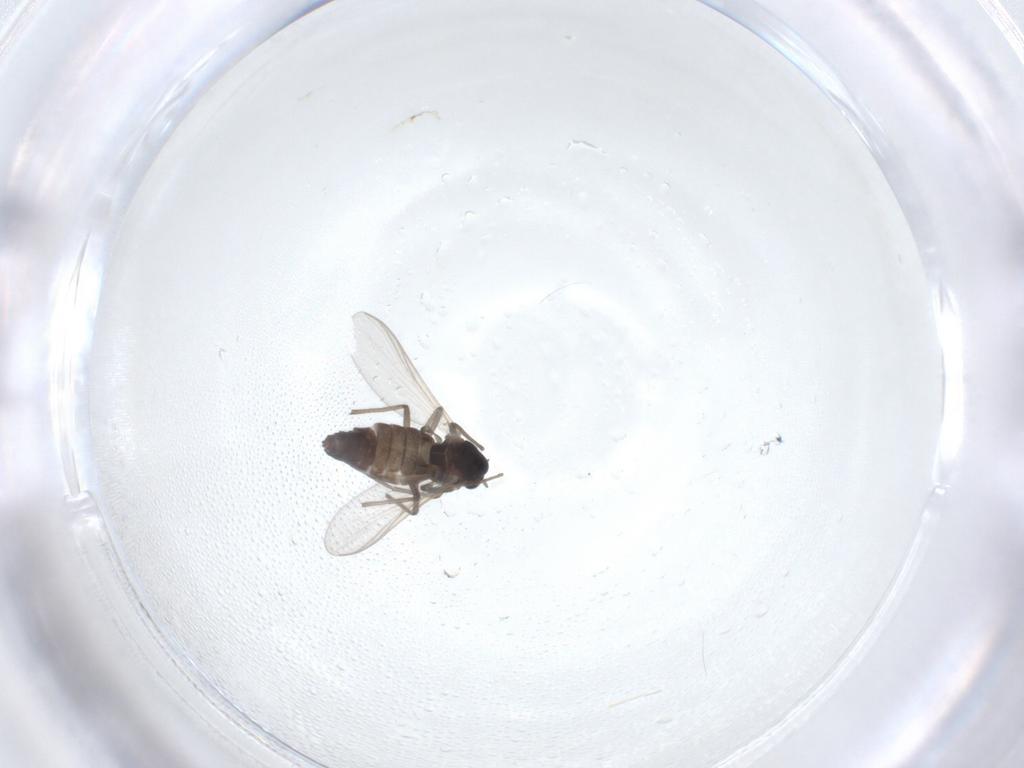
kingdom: Animalia
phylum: Arthropoda
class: Insecta
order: Diptera
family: Chironomidae
